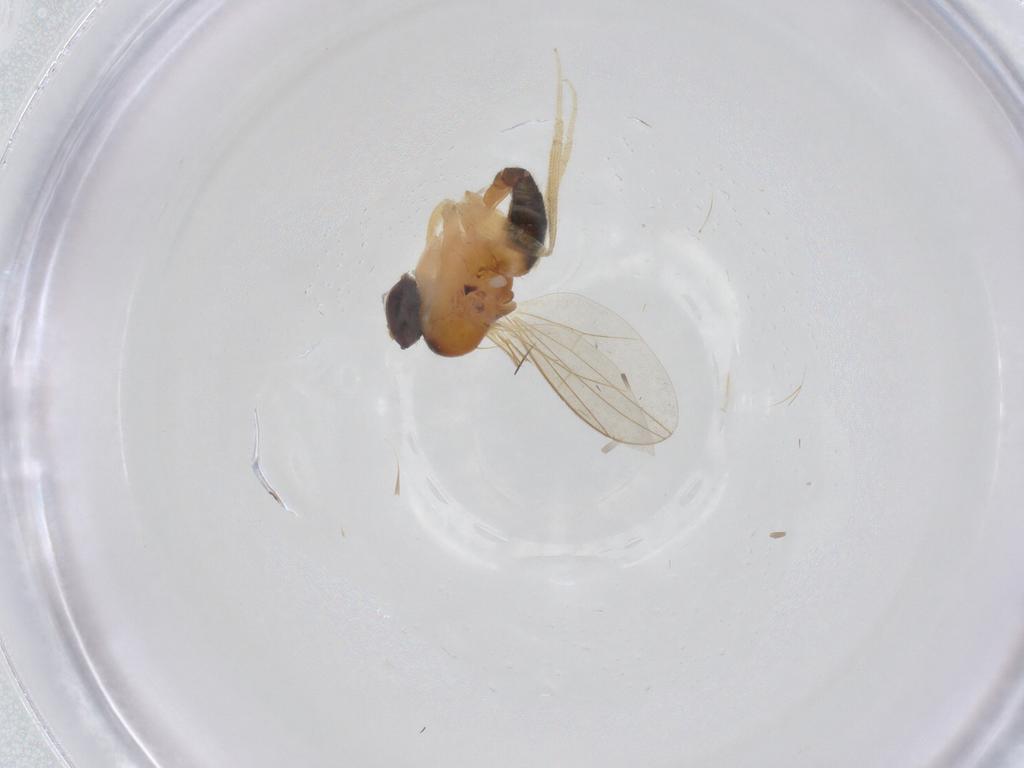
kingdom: Animalia
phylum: Arthropoda
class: Insecta
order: Diptera
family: Dolichopodidae
